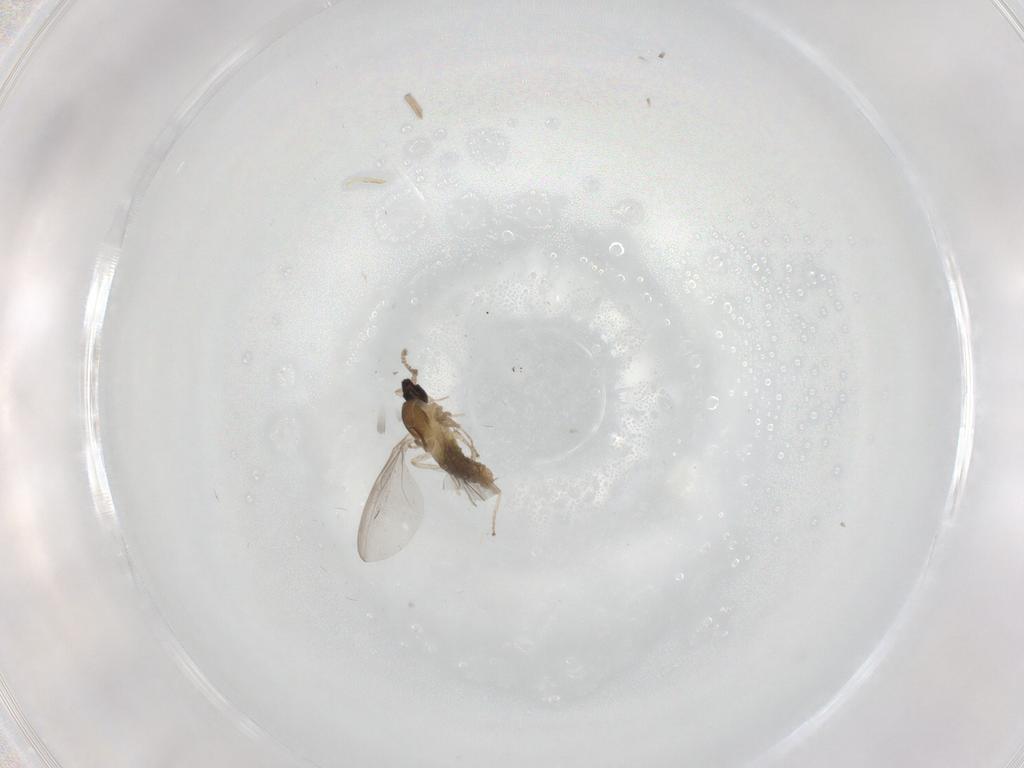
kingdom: Animalia
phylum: Arthropoda
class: Insecta
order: Diptera
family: Cecidomyiidae
